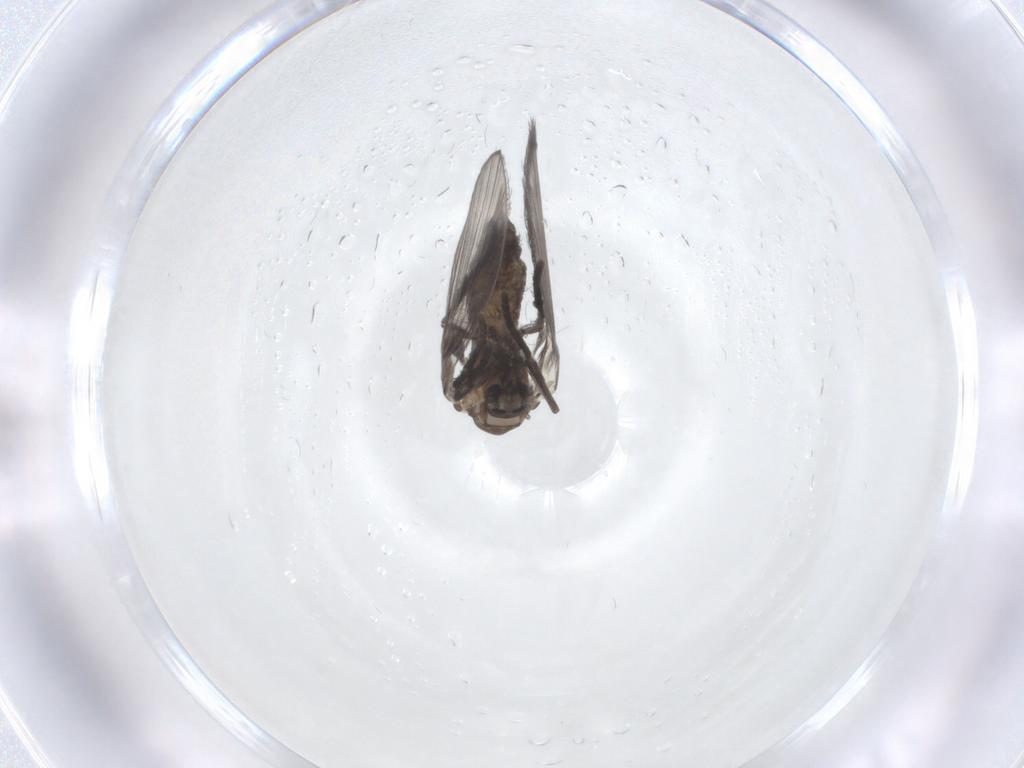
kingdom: Animalia
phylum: Arthropoda
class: Insecta
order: Diptera
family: Psychodidae
